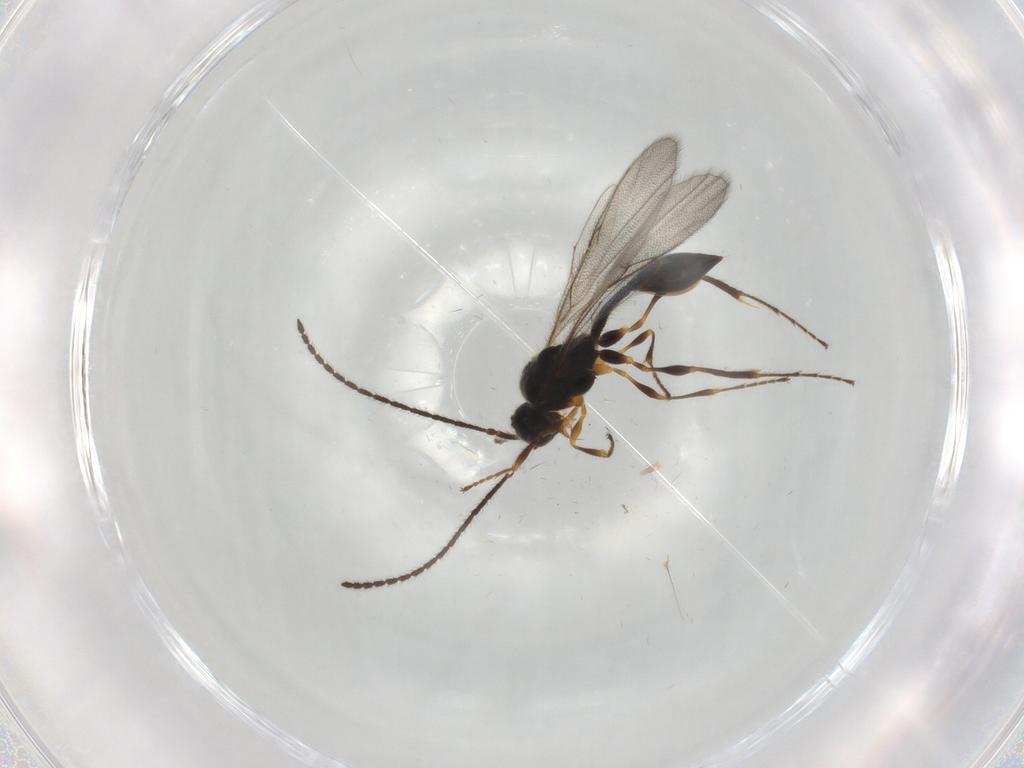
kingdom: Animalia
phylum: Arthropoda
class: Insecta
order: Hymenoptera
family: Diapriidae
